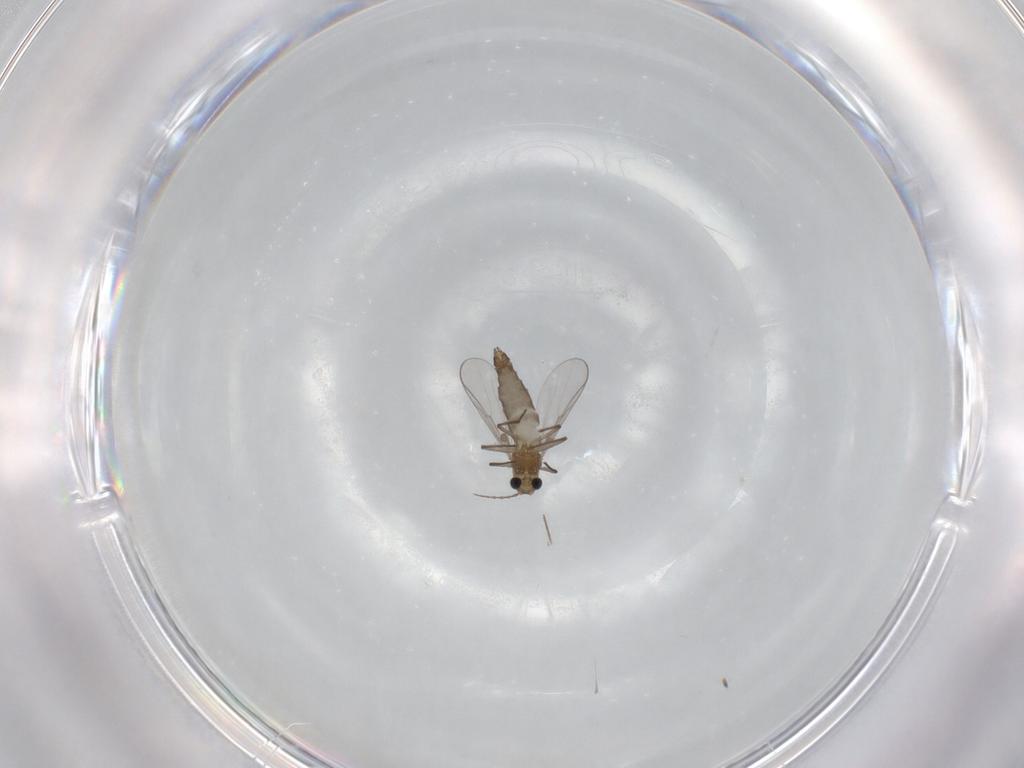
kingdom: Animalia
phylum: Arthropoda
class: Insecta
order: Diptera
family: Chironomidae
